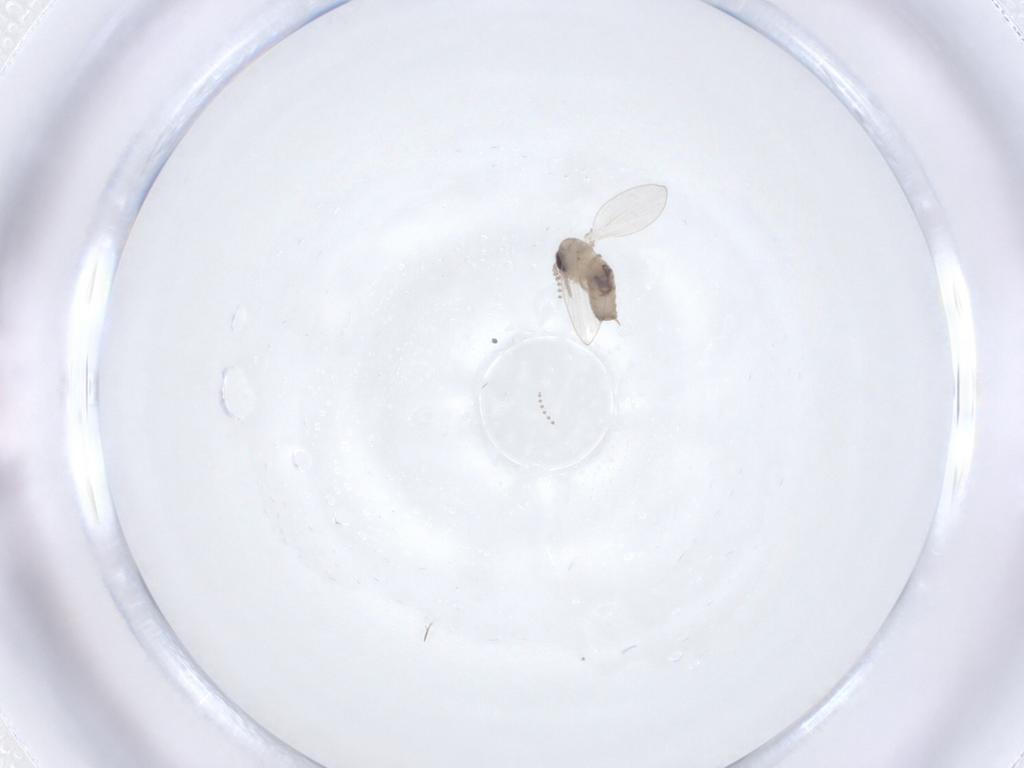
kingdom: Animalia
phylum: Arthropoda
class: Insecta
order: Diptera
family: Psychodidae
